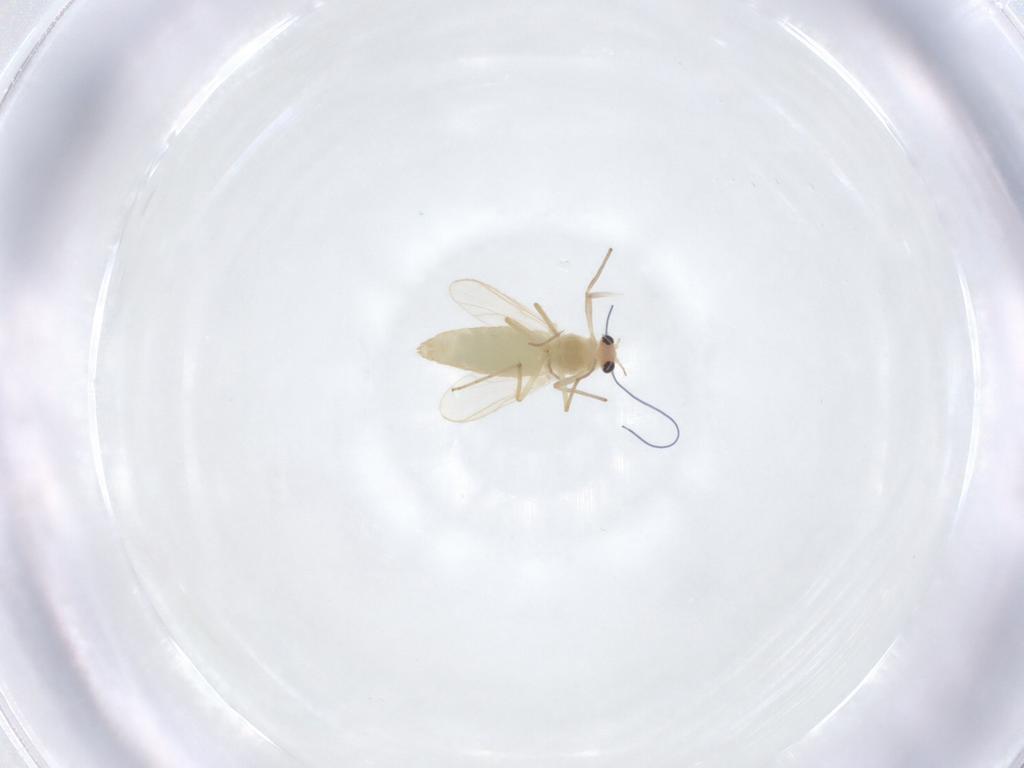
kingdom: Animalia
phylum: Arthropoda
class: Insecta
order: Diptera
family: Chironomidae
